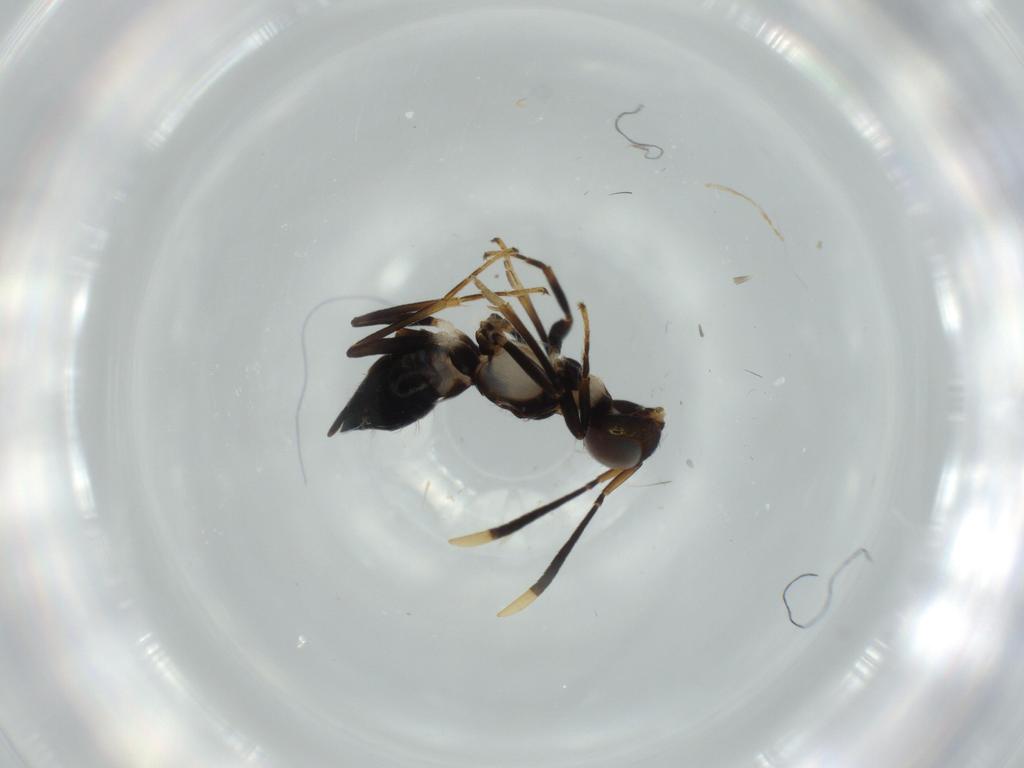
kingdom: Animalia
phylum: Arthropoda
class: Insecta
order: Hymenoptera
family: Eupelmidae
